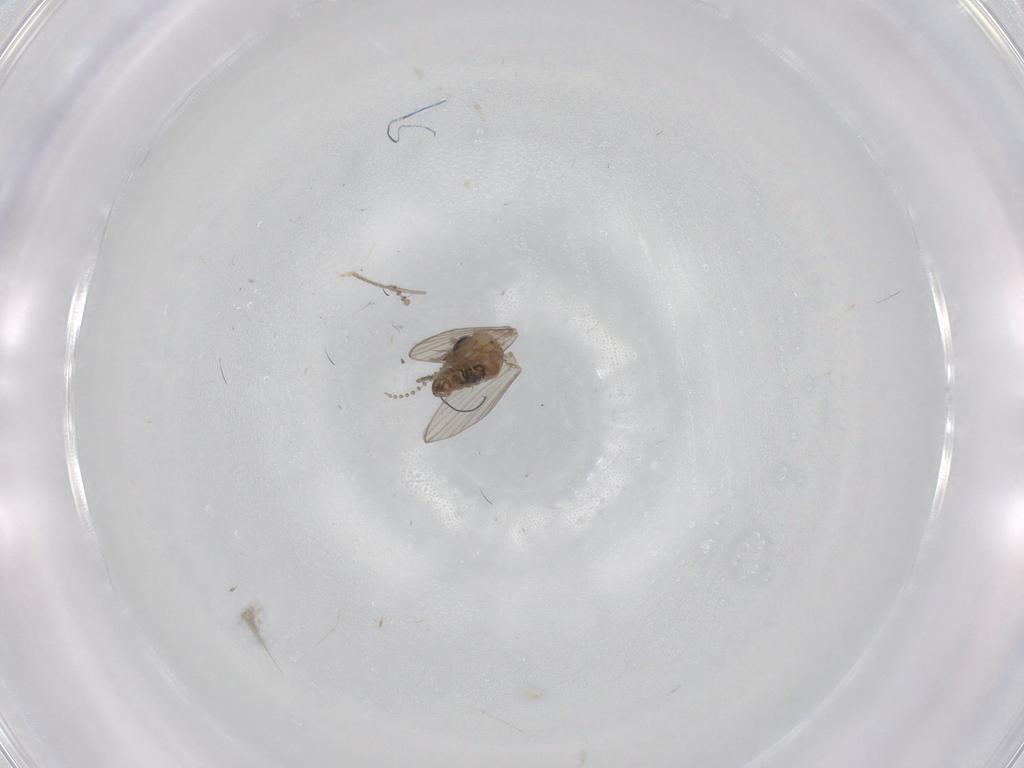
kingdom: Animalia
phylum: Arthropoda
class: Insecta
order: Diptera
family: Psychodidae
